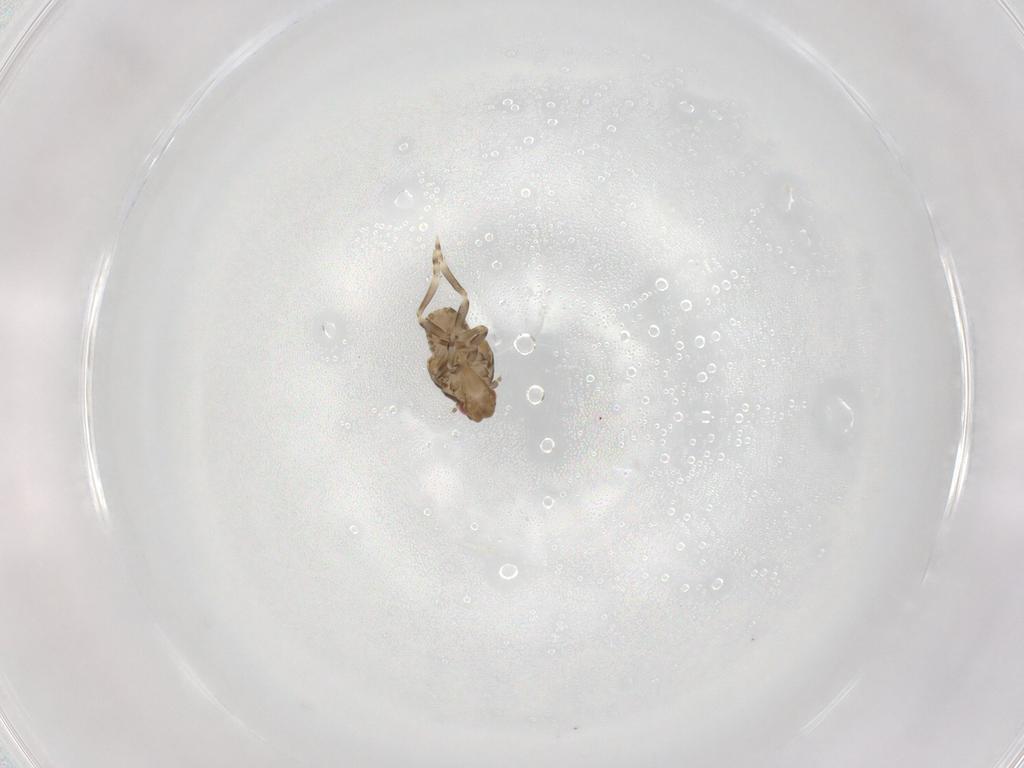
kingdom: Animalia
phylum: Arthropoda
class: Insecta
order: Hemiptera
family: Flatidae
